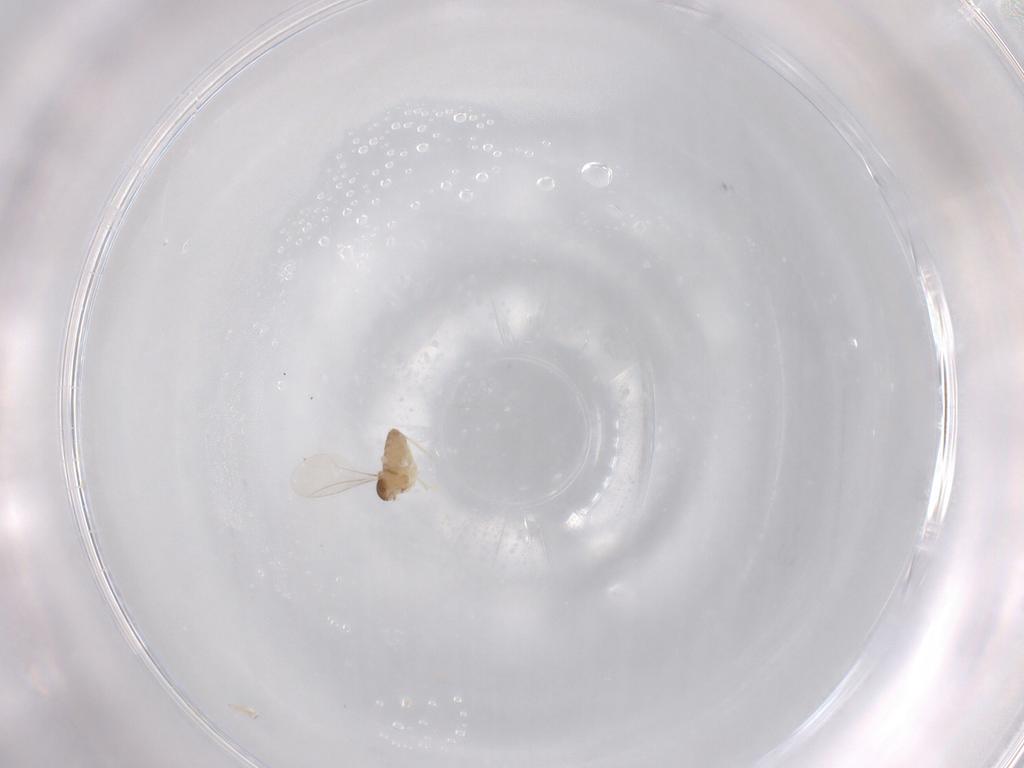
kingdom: Animalia
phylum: Arthropoda
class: Insecta
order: Diptera
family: Cecidomyiidae
